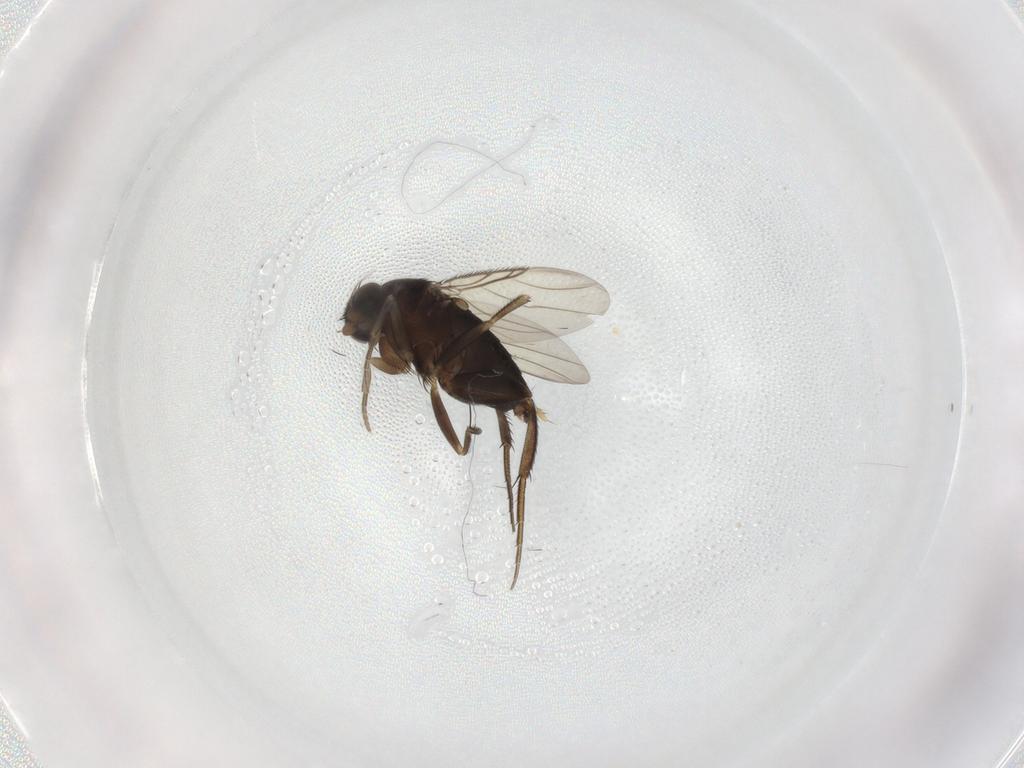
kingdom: Animalia
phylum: Arthropoda
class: Insecta
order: Diptera
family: Phoridae
